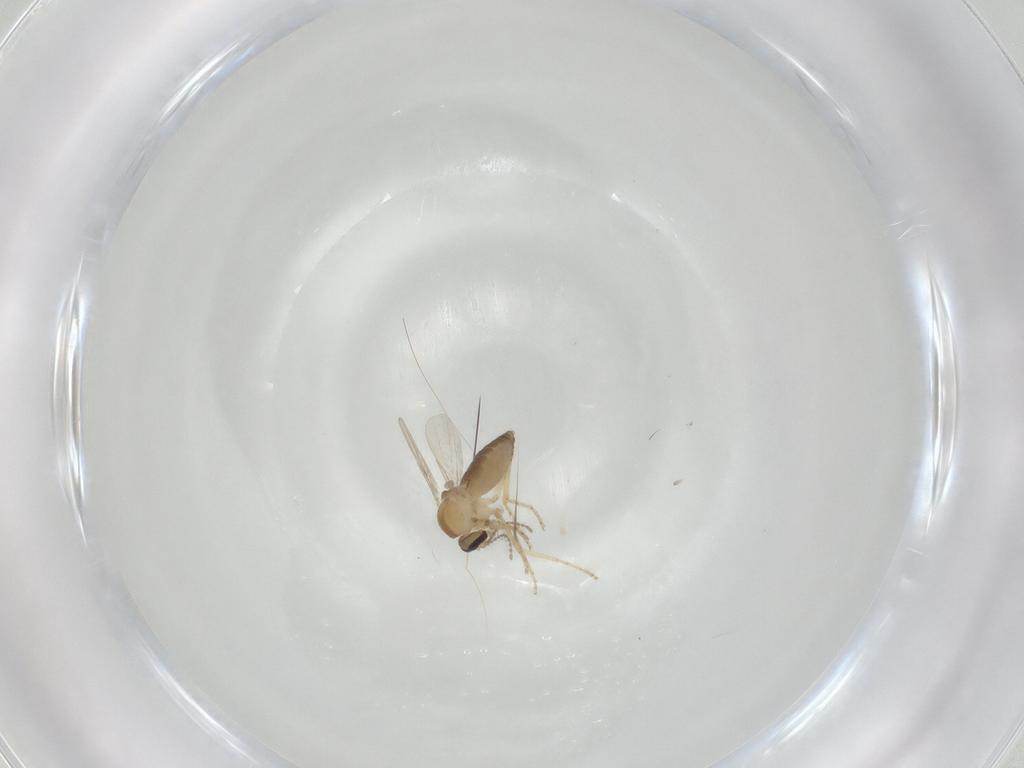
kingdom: Animalia
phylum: Arthropoda
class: Insecta
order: Diptera
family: Ceratopogonidae
